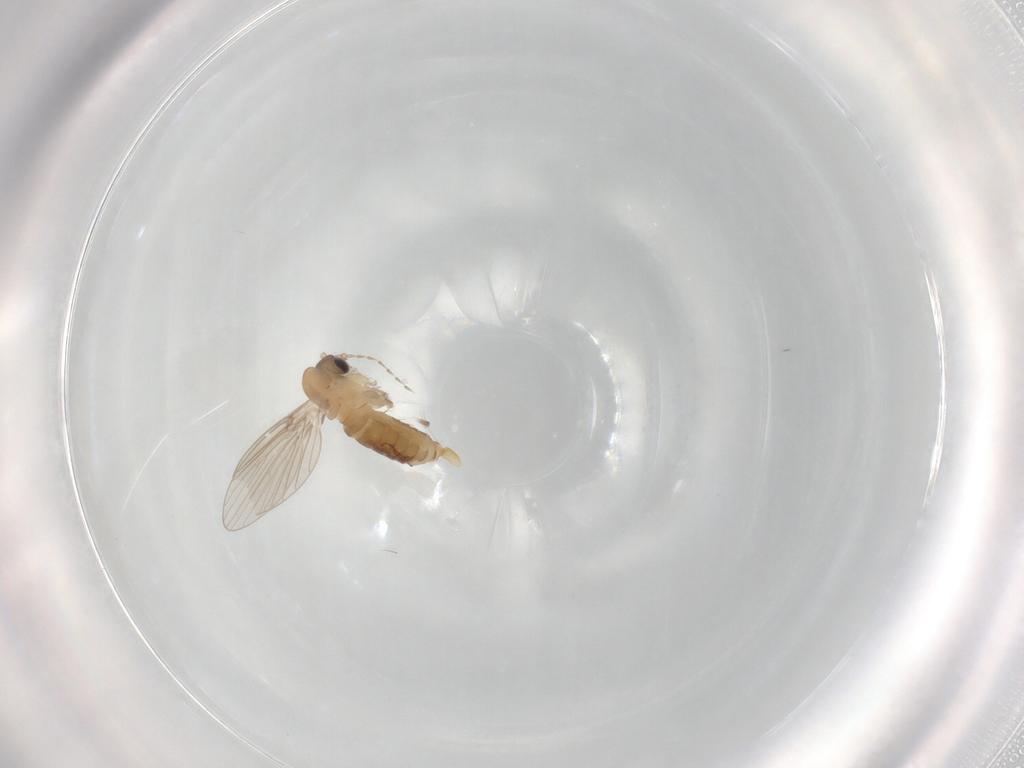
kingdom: Animalia
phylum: Arthropoda
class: Insecta
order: Diptera
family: Psychodidae
